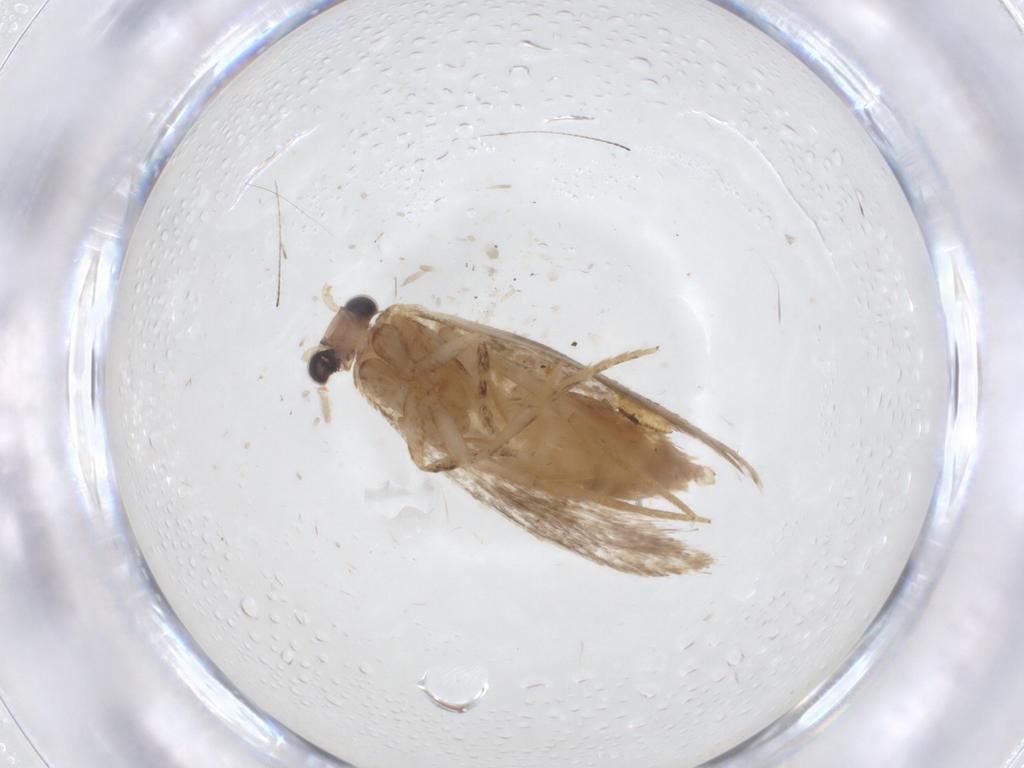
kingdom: Animalia
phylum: Arthropoda
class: Insecta
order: Lepidoptera
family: Tineidae
